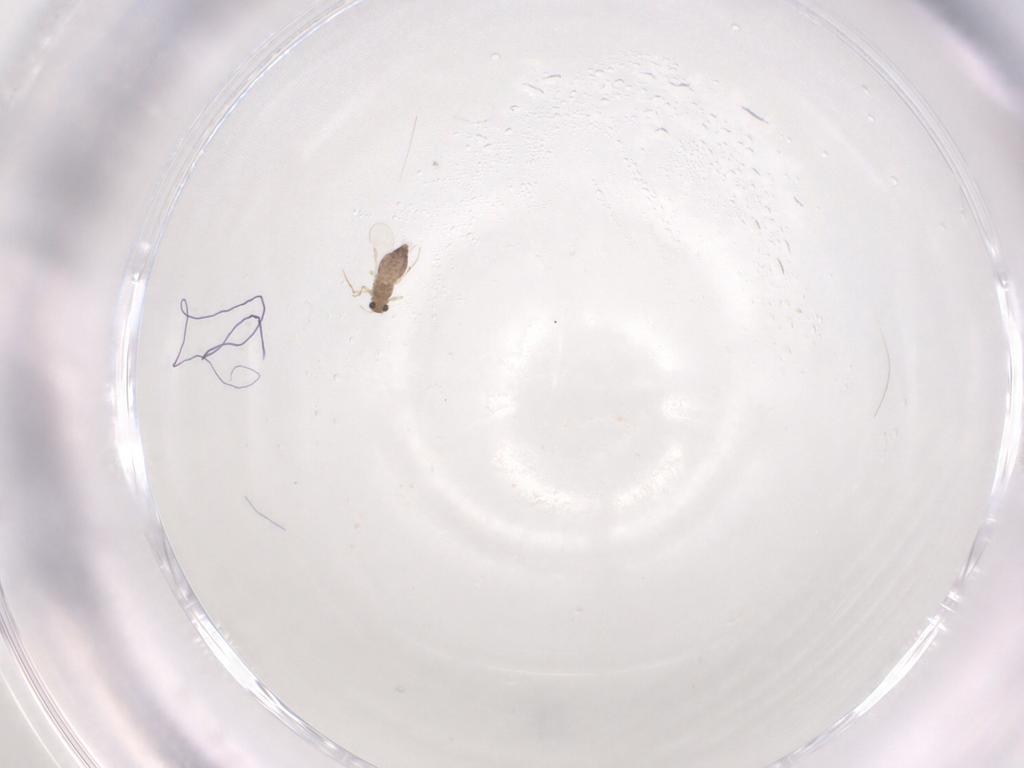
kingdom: Animalia
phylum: Arthropoda
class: Insecta
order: Diptera
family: Chironomidae
